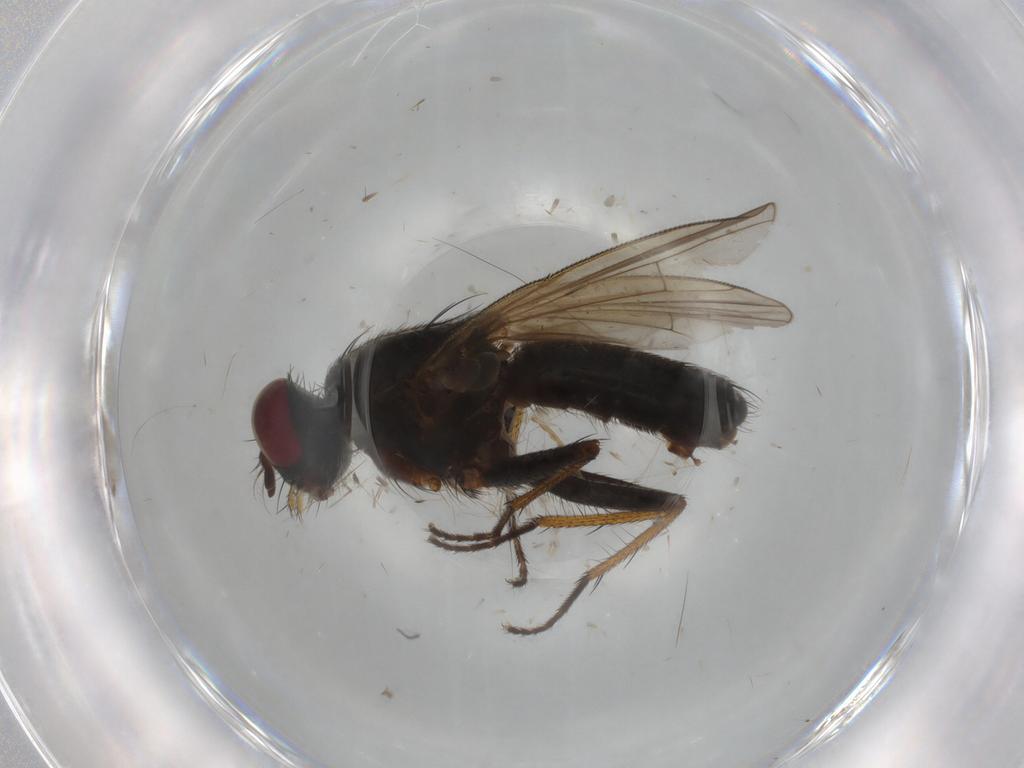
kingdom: Animalia
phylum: Arthropoda
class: Insecta
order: Diptera
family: Muscidae
